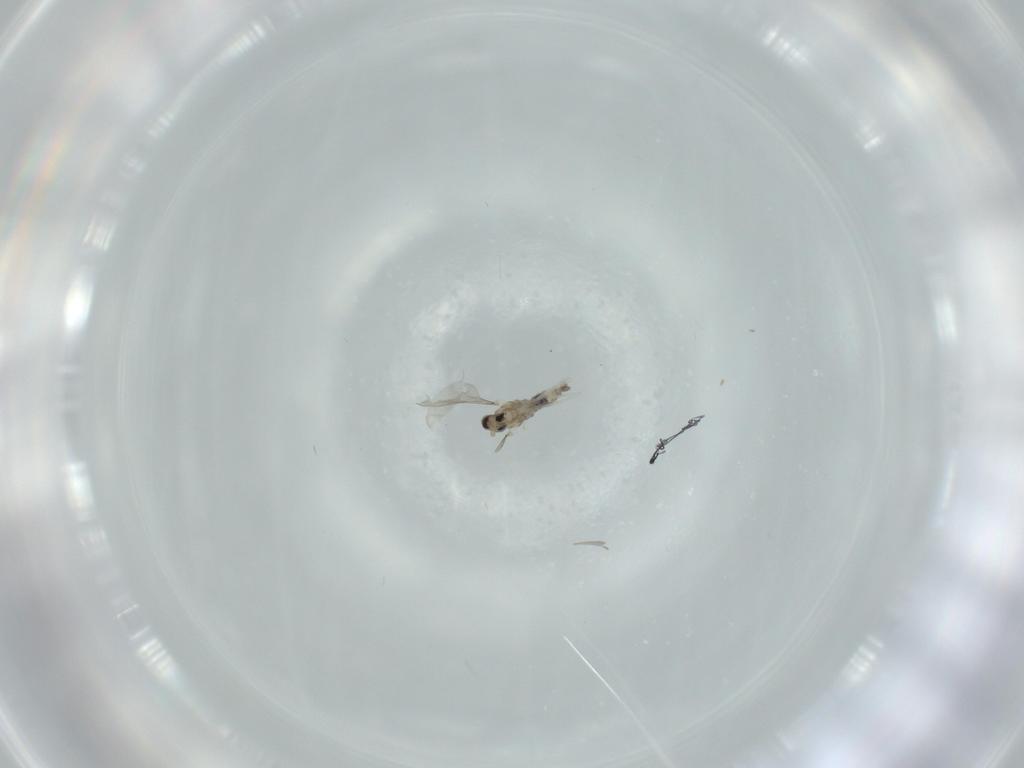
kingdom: Animalia
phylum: Arthropoda
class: Insecta
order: Diptera
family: Cecidomyiidae
